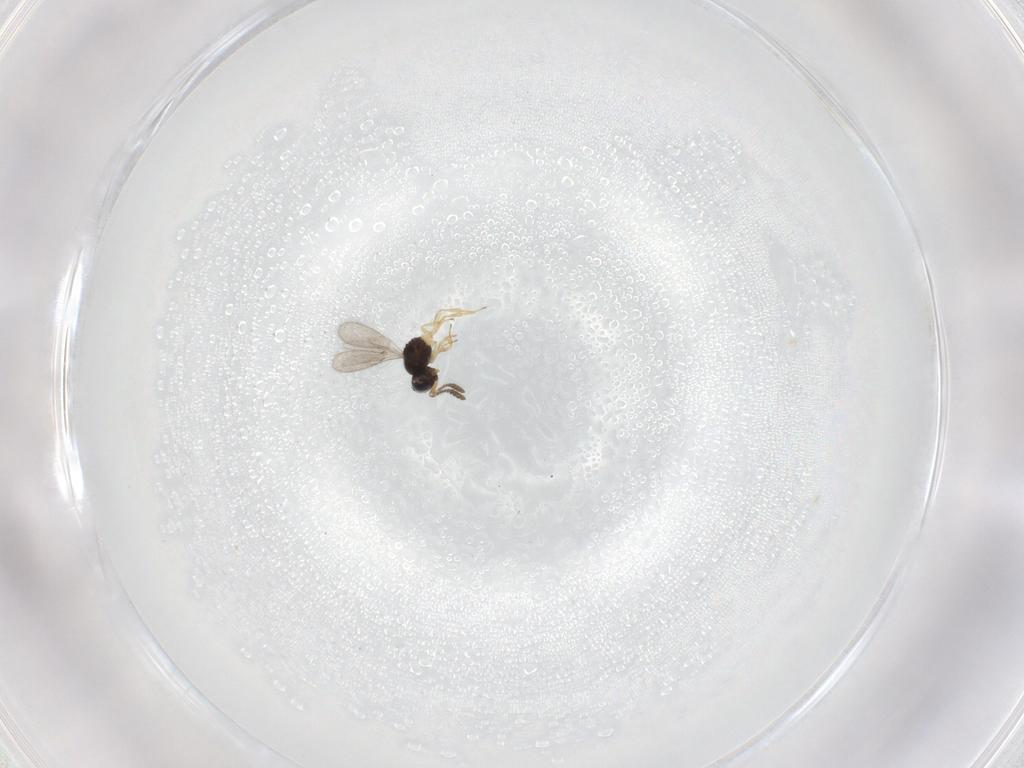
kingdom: Animalia
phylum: Arthropoda
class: Insecta
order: Hymenoptera
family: Scelionidae
